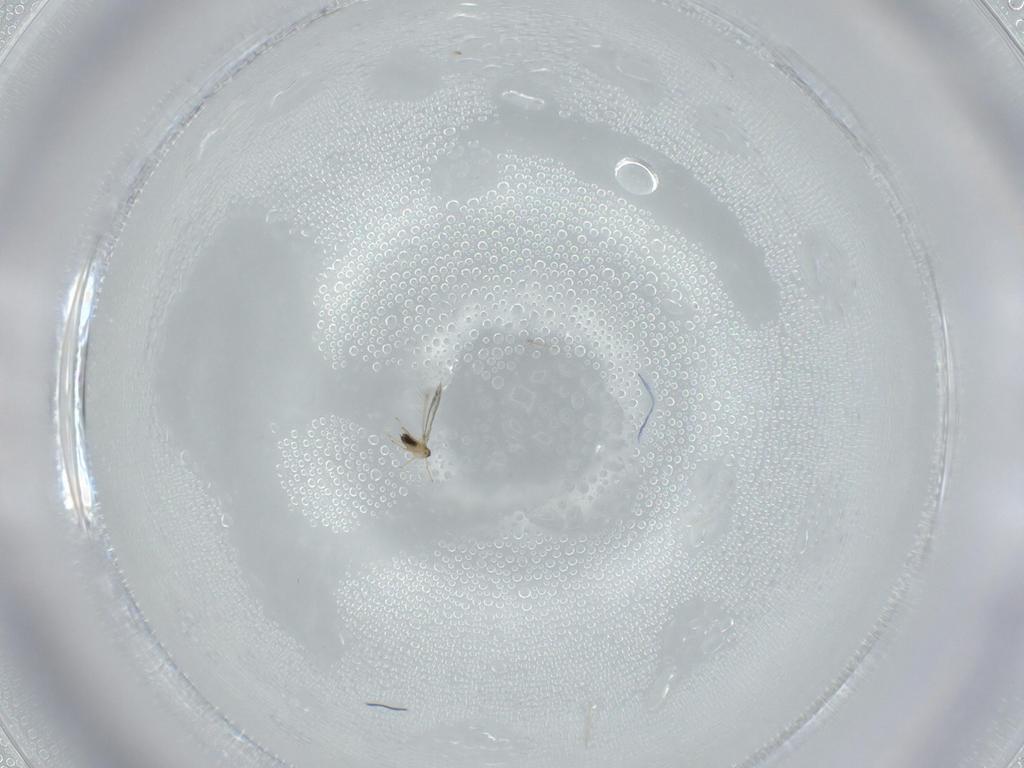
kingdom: Animalia
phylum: Arthropoda
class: Insecta
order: Hymenoptera
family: Mymaridae
